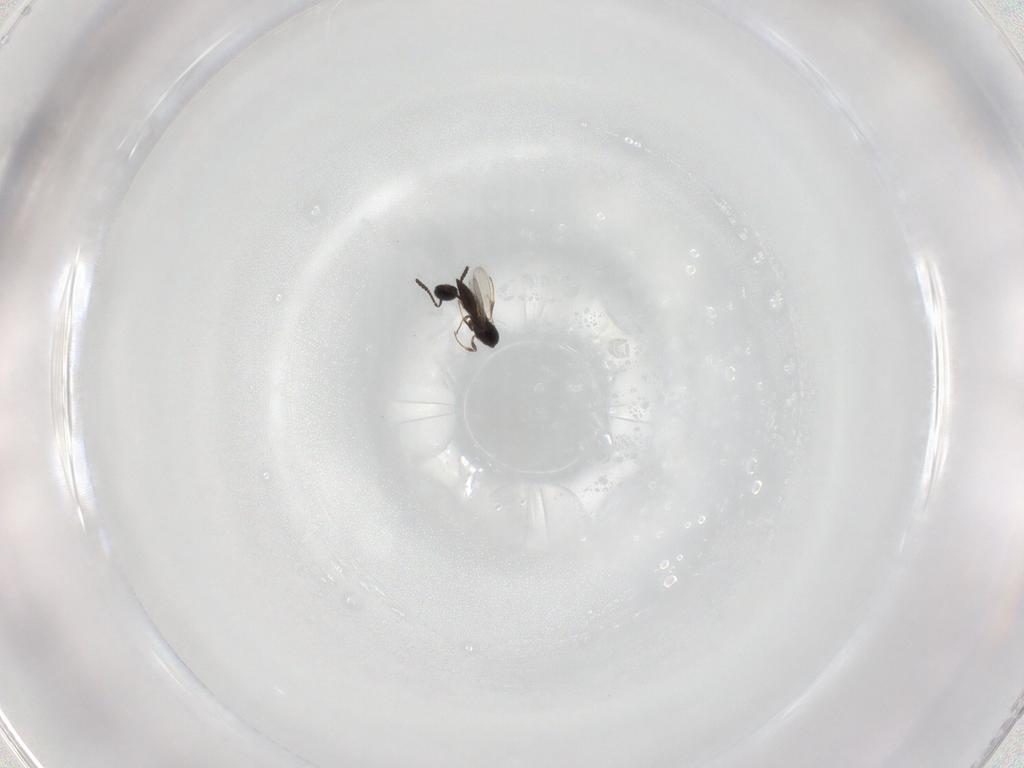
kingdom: Animalia
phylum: Arthropoda
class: Insecta
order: Hymenoptera
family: Scelionidae
